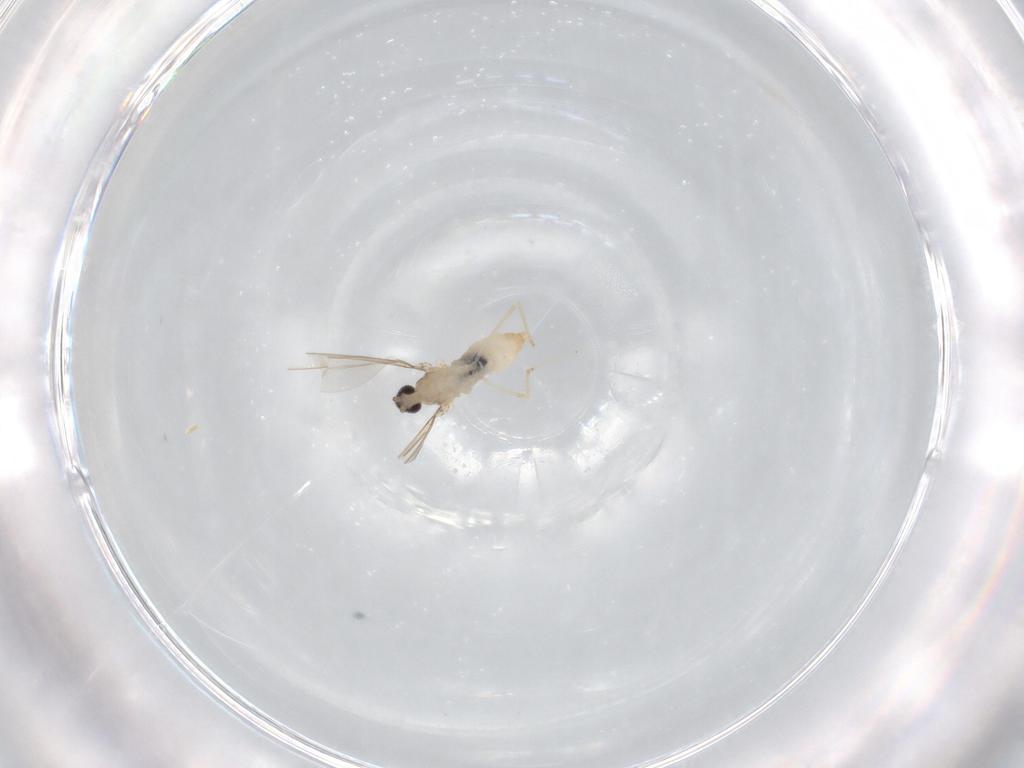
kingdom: Animalia
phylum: Arthropoda
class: Insecta
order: Diptera
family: Cecidomyiidae
